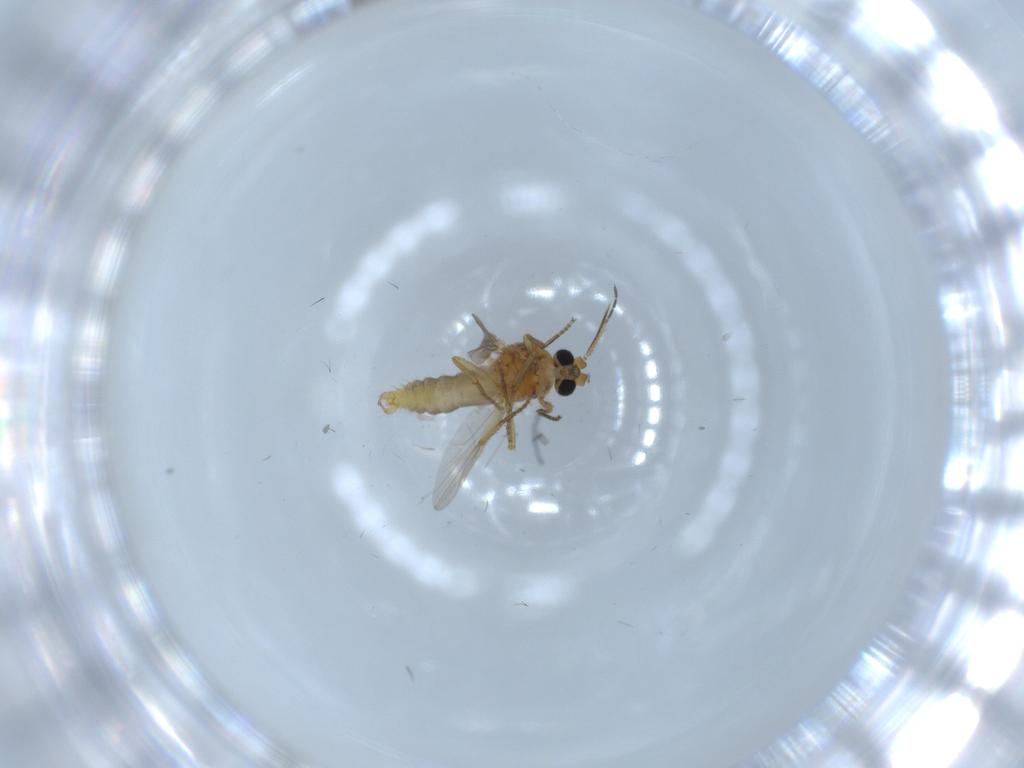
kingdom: Animalia
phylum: Arthropoda
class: Insecta
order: Diptera
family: Ceratopogonidae
